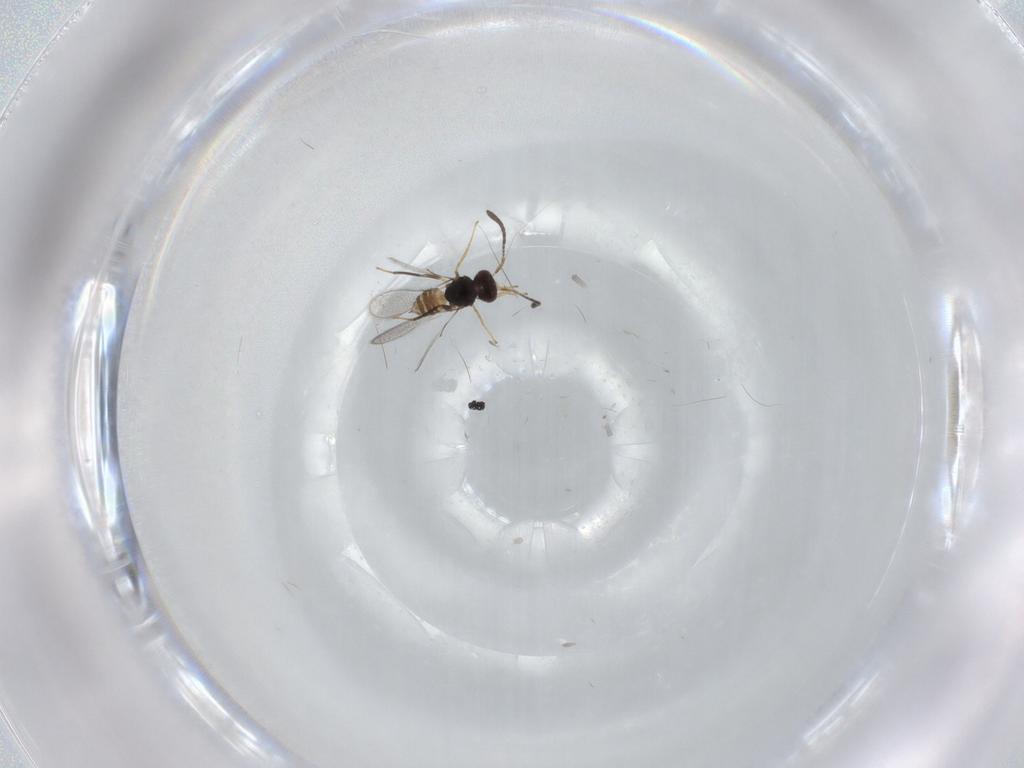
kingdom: Animalia
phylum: Arthropoda
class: Insecta
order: Hymenoptera
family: Mymaridae
